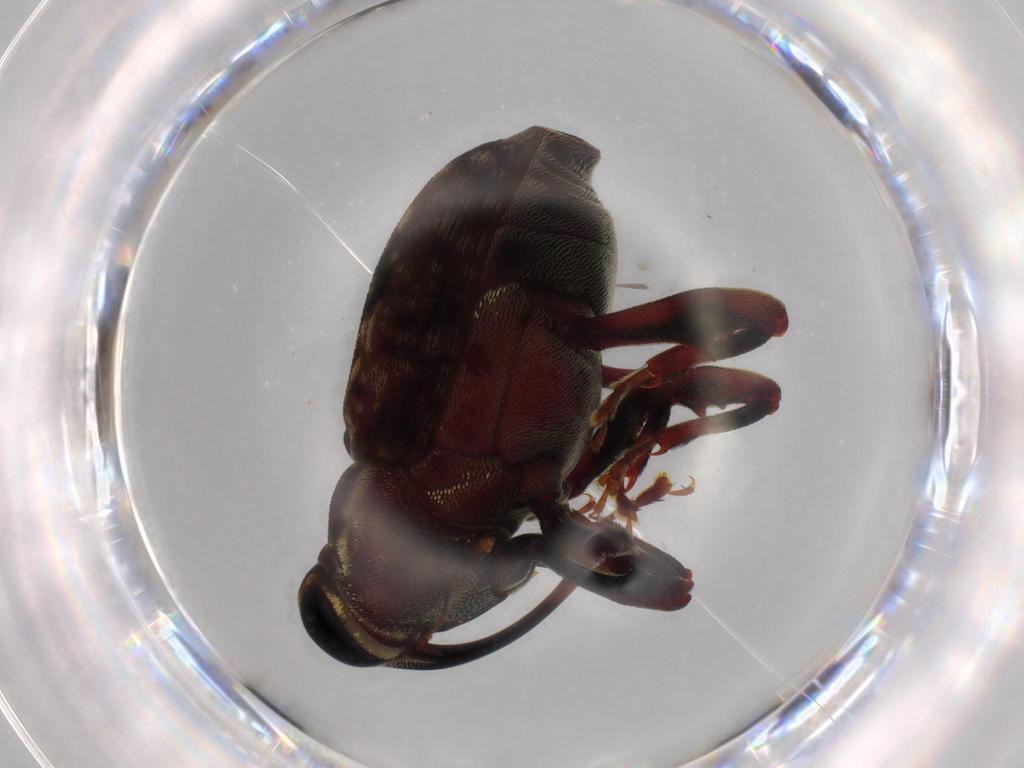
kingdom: Animalia
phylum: Arthropoda
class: Insecta
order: Coleoptera
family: Curculionidae
